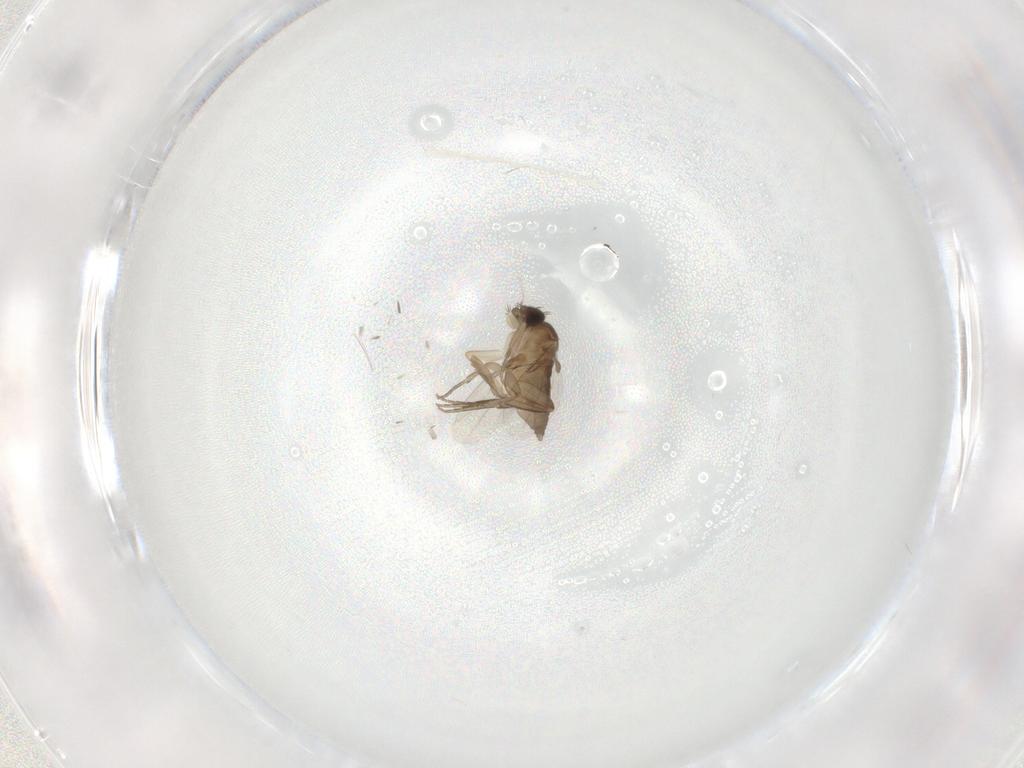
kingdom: Animalia
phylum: Arthropoda
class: Insecta
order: Diptera
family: Phoridae
